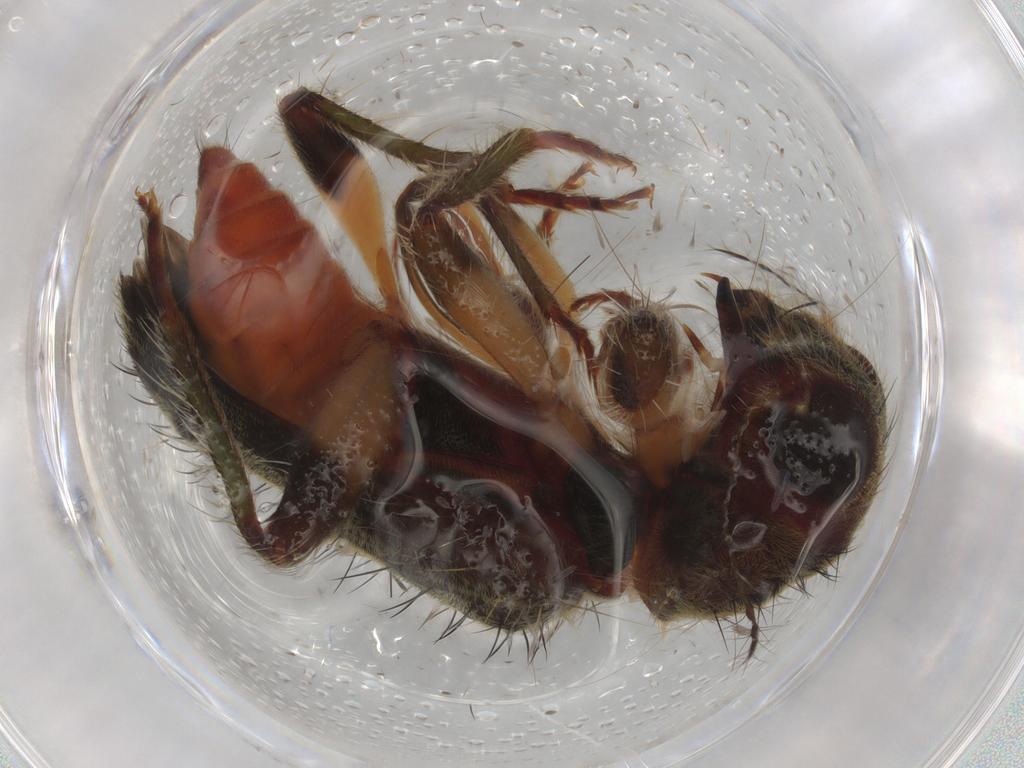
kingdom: Animalia
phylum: Arthropoda
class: Insecta
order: Coleoptera
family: Cleridae
